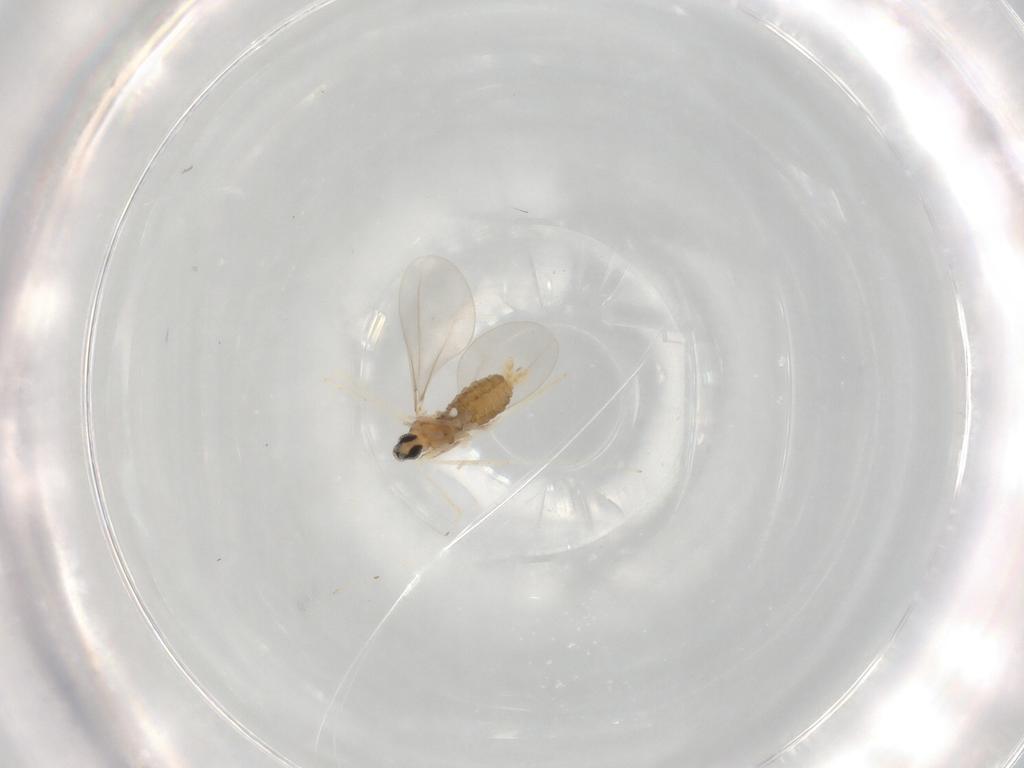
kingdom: Animalia
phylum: Arthropoda
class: Insecta
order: Diptera
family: Cecidomyiidae
